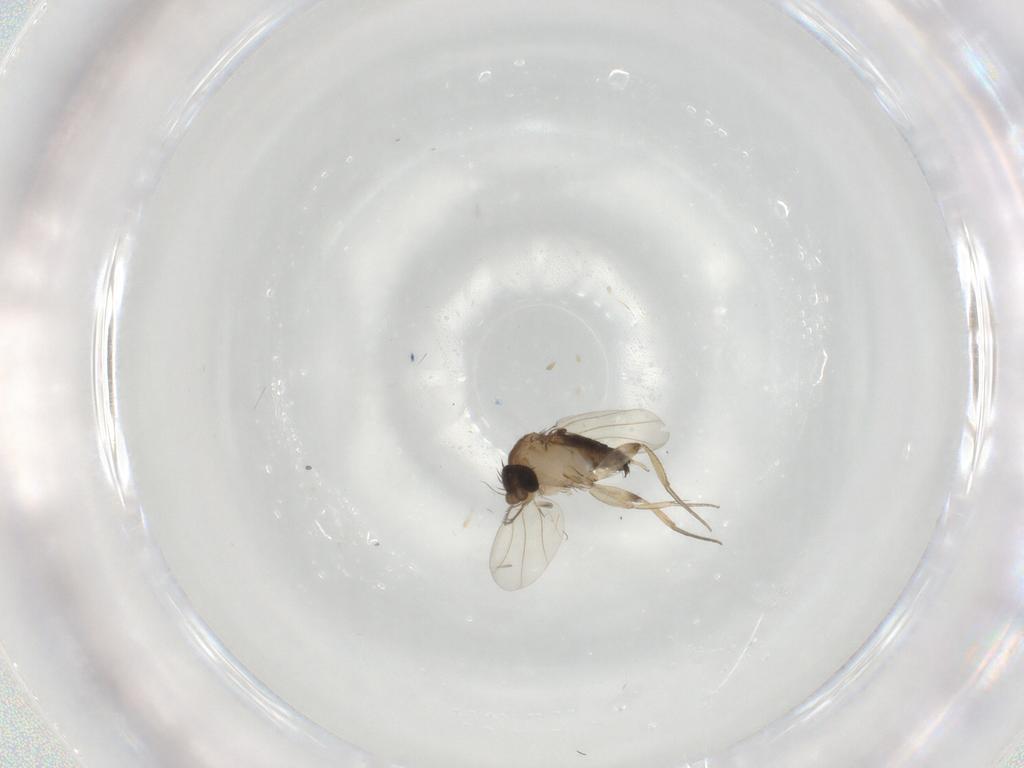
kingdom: Animalia
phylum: Arthropoda
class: Insecta
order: Diptera
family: Phoridae
